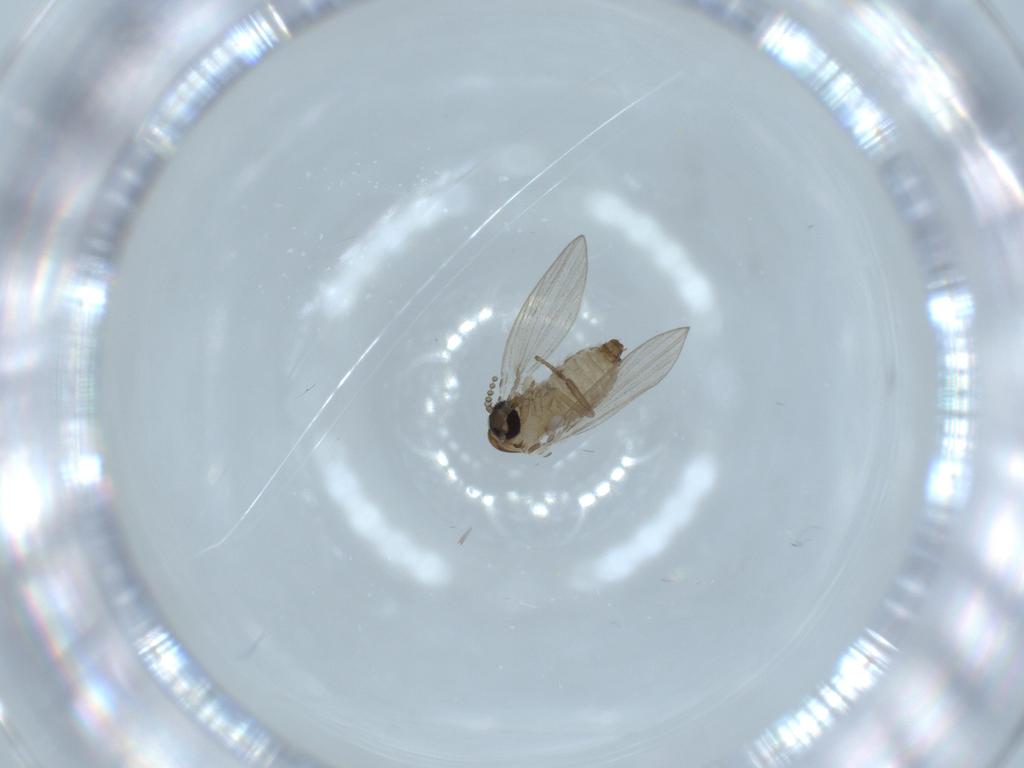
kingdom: Animalia
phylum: Arthropoda
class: Insecta
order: Diptera
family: Psychodidae
